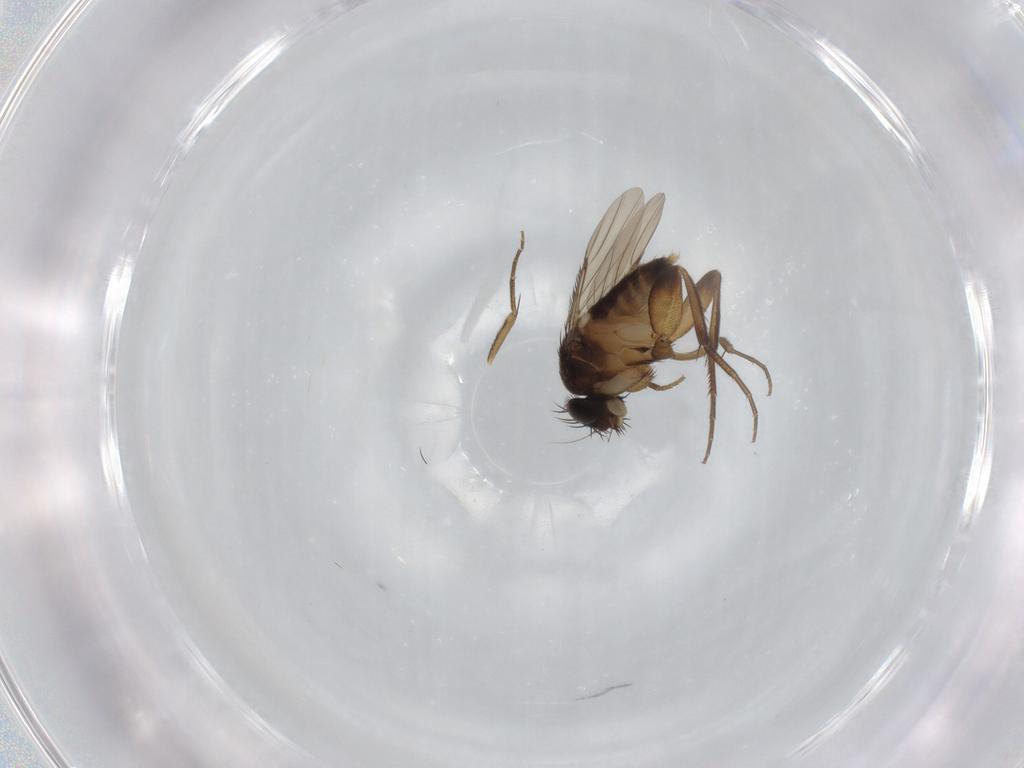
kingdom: Animalia
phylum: Arthropoda
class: Insecta
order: Diptera
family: Phoridae
